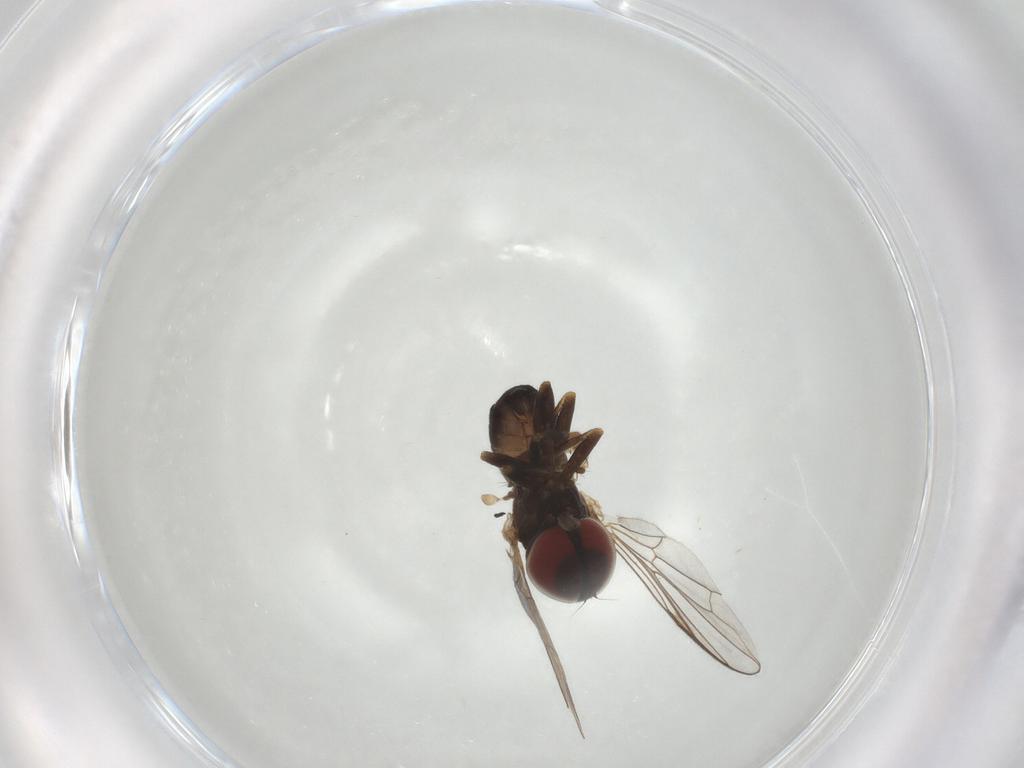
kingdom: Animalia
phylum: Arthropoda
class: Insecta
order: Diptera
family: Pipunculidae
